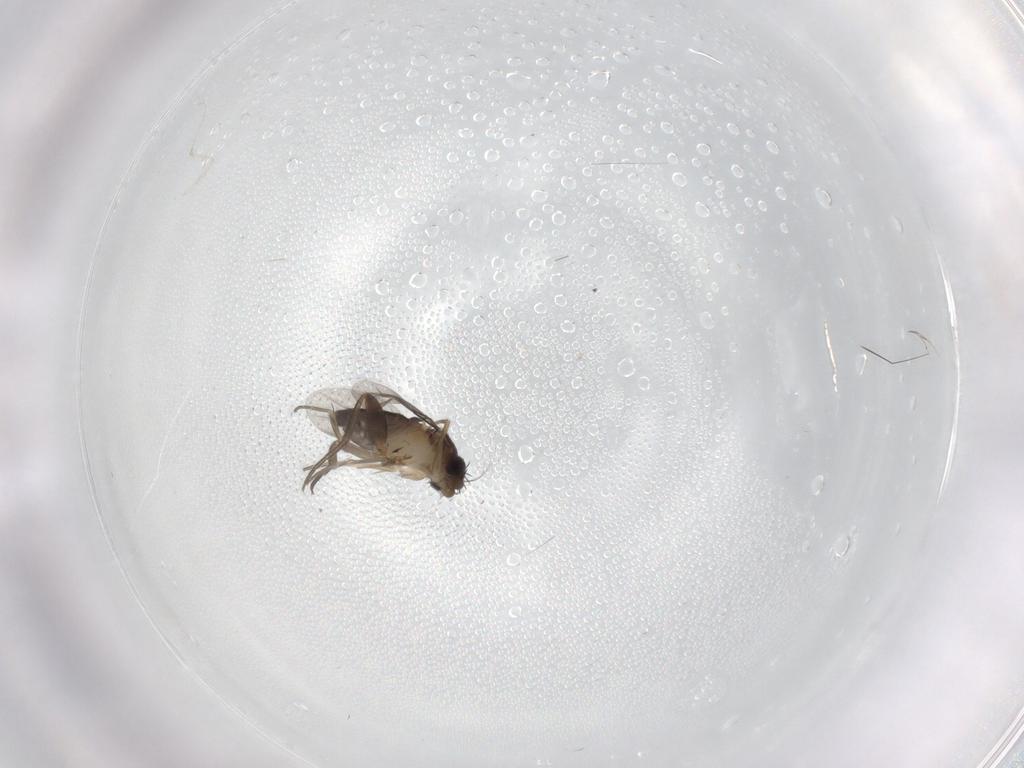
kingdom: Animalia
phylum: Arthropoda
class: Insecta
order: Diptera
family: Phoridae
